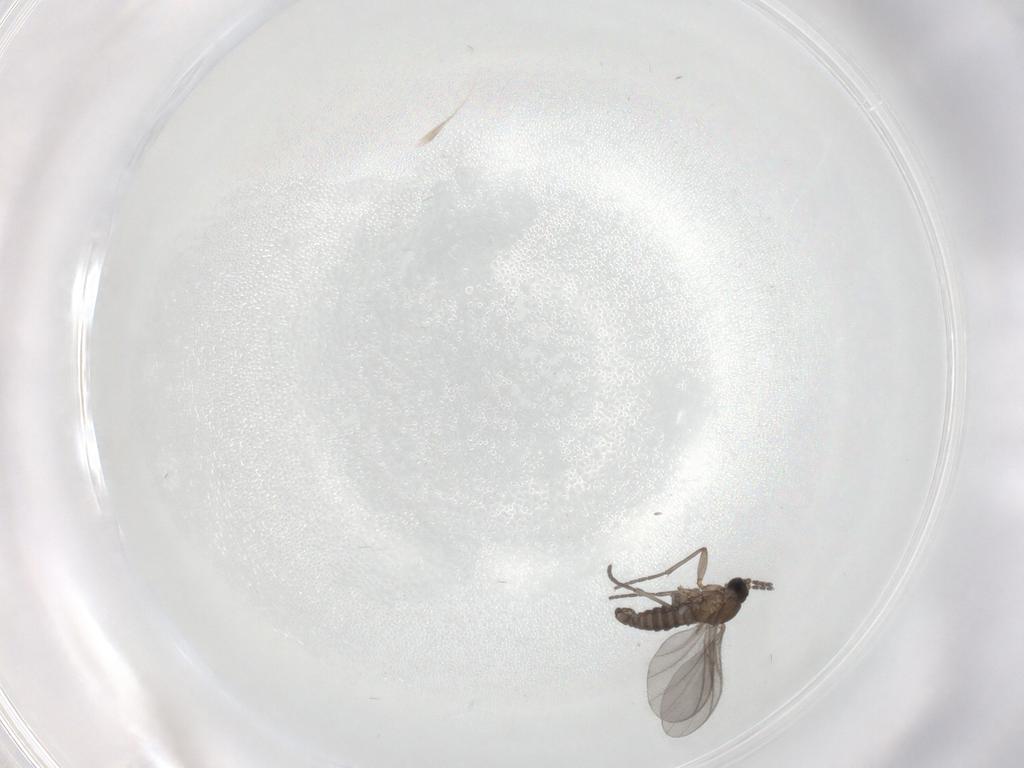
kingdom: Animalia
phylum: Arthropoda
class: Insecta
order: Diptera
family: Sciaridae
